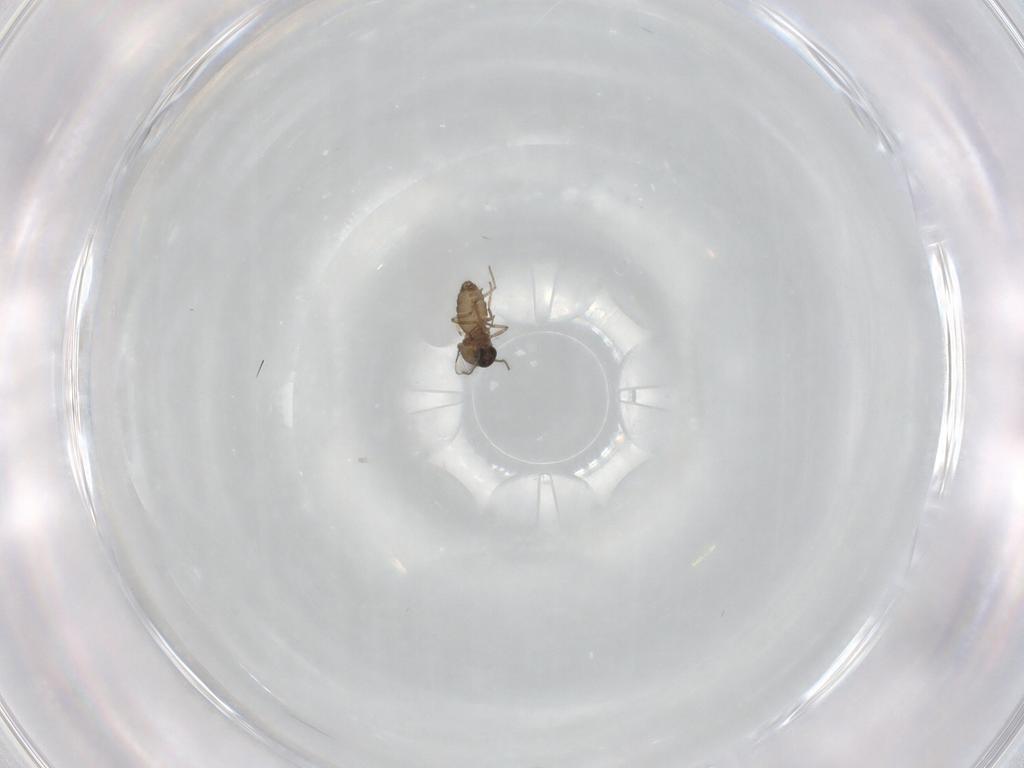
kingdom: Animalia
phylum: Arthropoda
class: Insecta
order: Diptera
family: Ceratopogonidae
